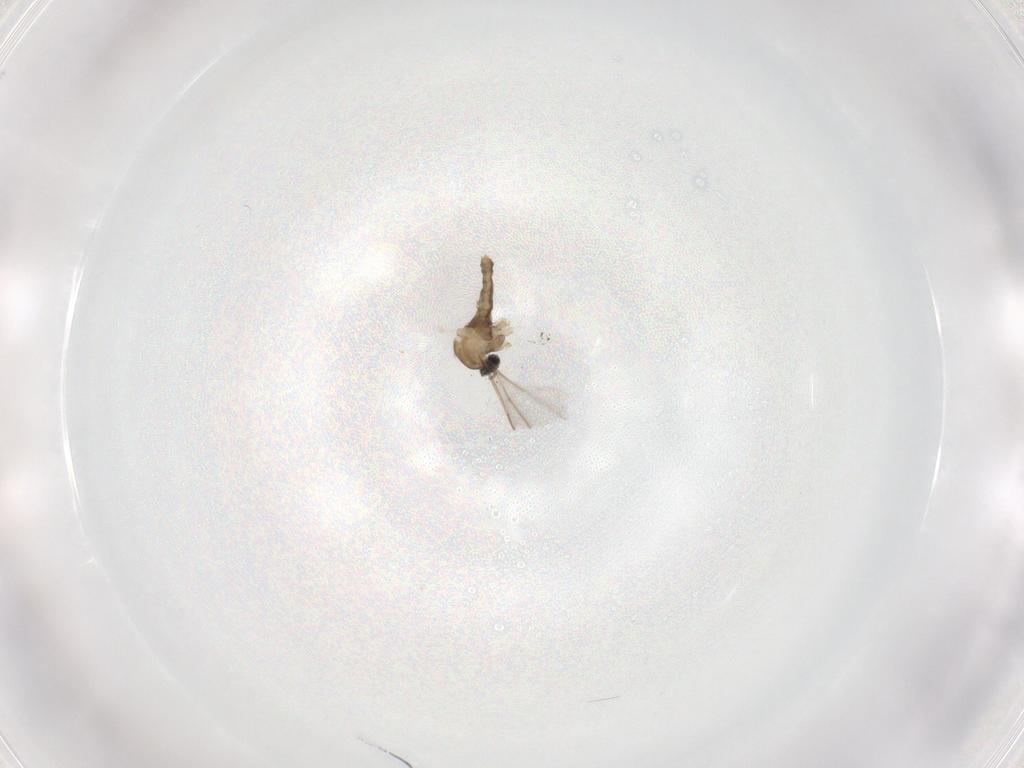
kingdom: Animalia
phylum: Arthropoda
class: Insecta
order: Diptera
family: Cecidomyiidae
